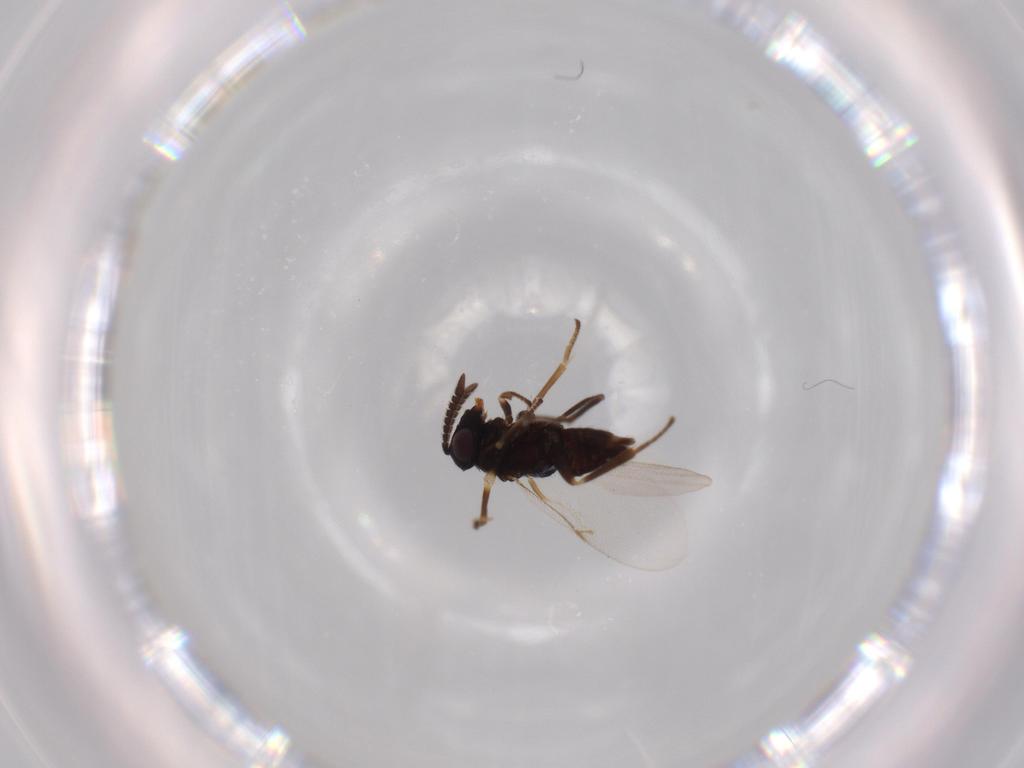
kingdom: Animalia
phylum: Arthropoda
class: Insecta
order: Hymenoptera
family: Encyrtidae
